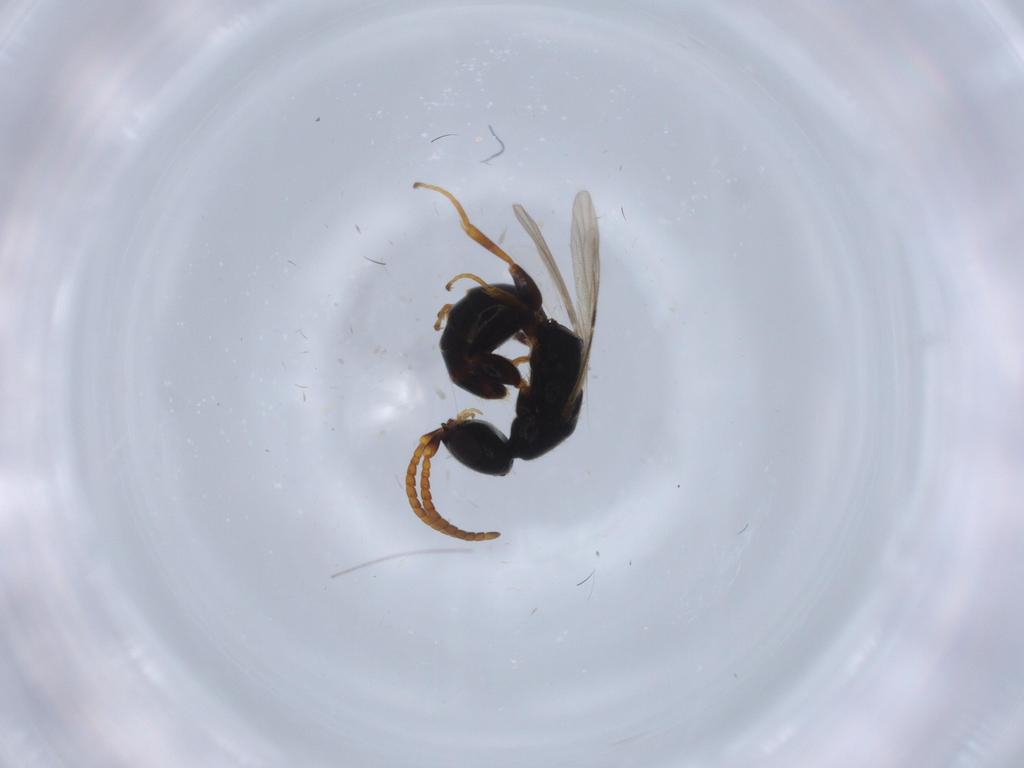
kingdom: Animalia
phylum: Arthropoda
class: Insecta
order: Hymenoptera
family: Bethylidae
